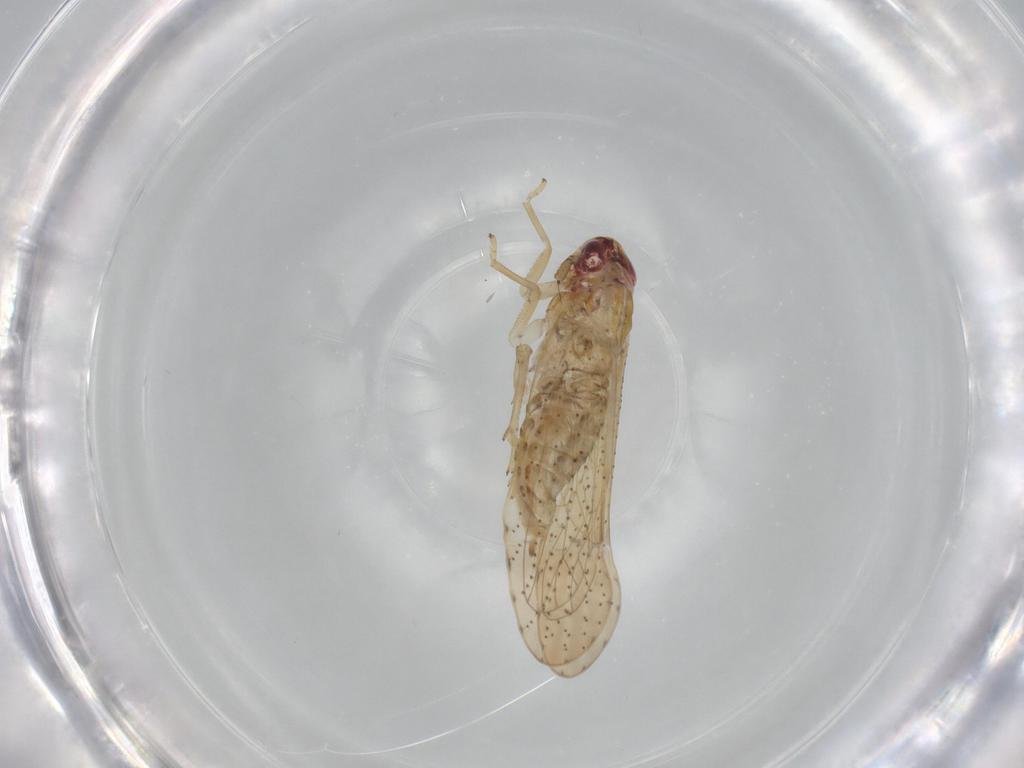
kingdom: Animalia
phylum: Arthropoda
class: Insecta
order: Hemiptera
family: Delphacidae
